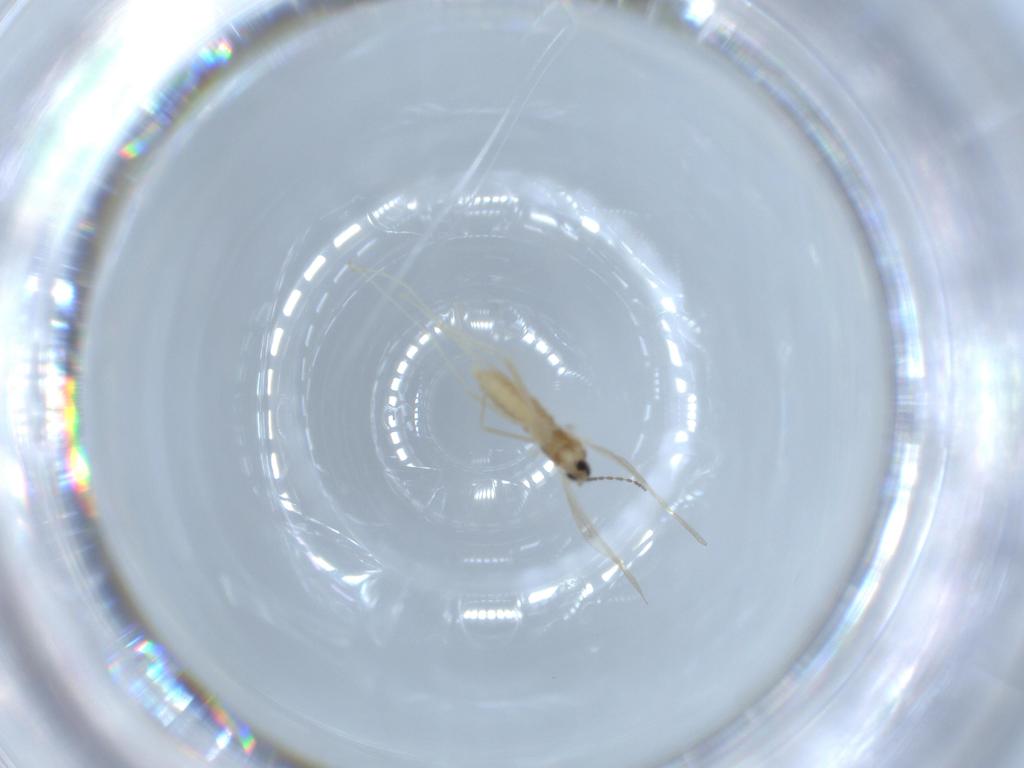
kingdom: Animalia
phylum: Arthropoda
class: Insecta
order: Diptera
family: Cecidomyiidae
